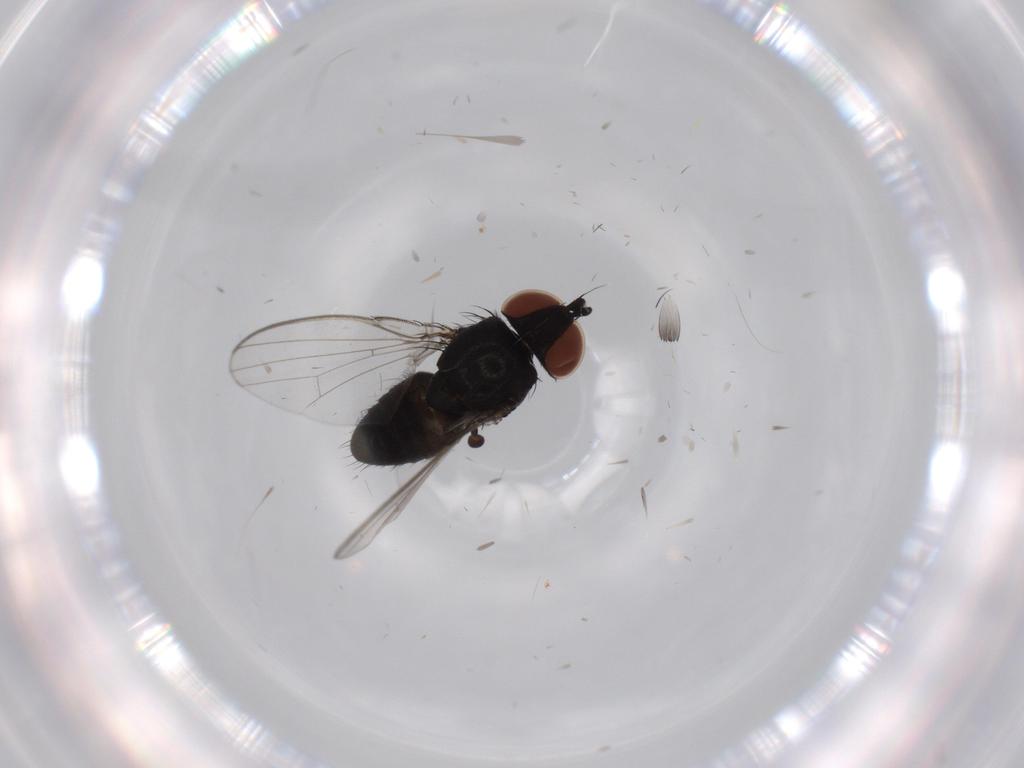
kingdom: Animalia
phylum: Arthropoda
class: Insecta
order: Diptera
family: Milichiidae
